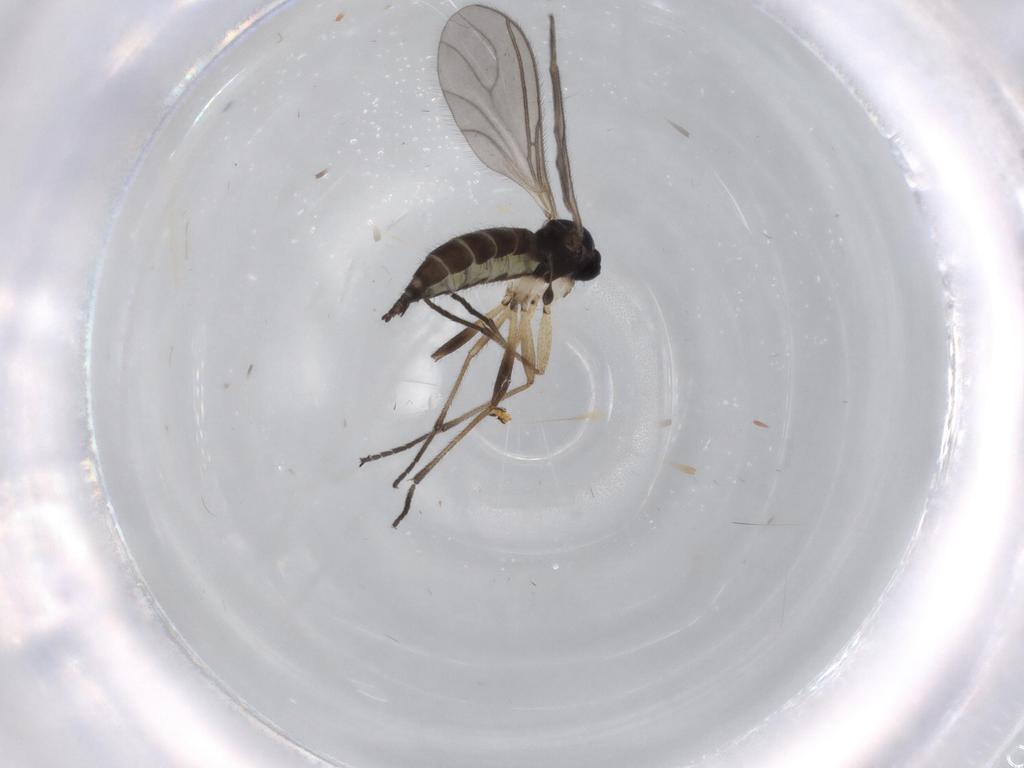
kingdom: Animalia
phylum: Arthropoda
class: Insecta
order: Diptera
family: Sciaridae
